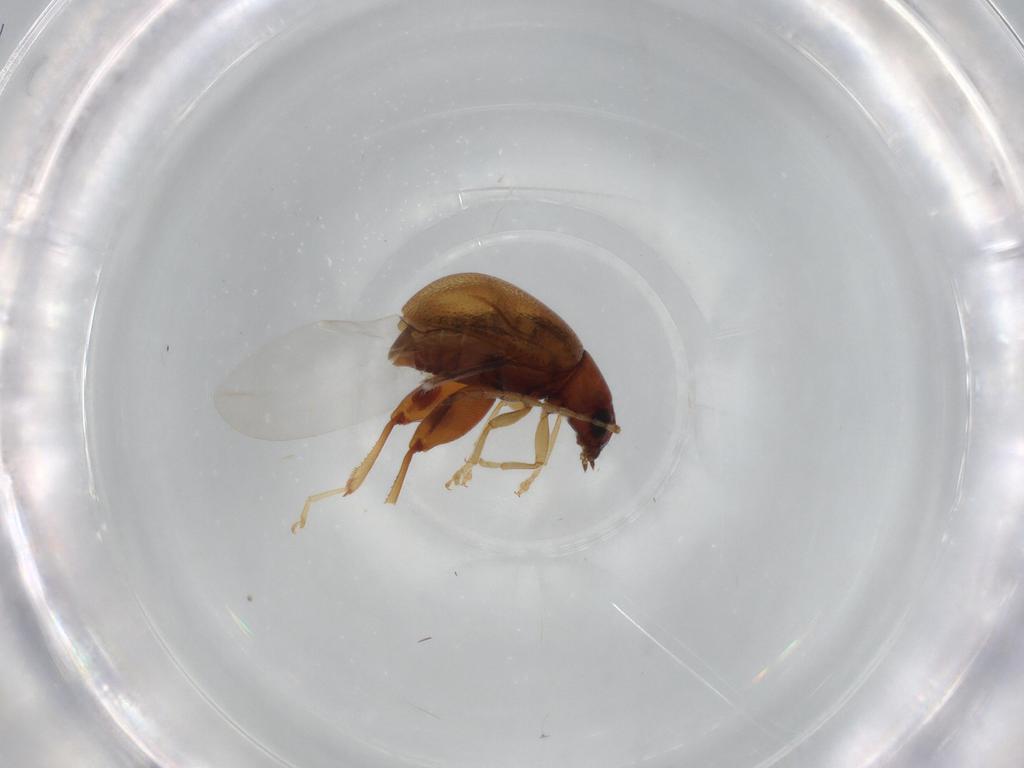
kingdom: Animalia
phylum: Arthropoda
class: Insecta
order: Coleoptera
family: Chrysomelidae
